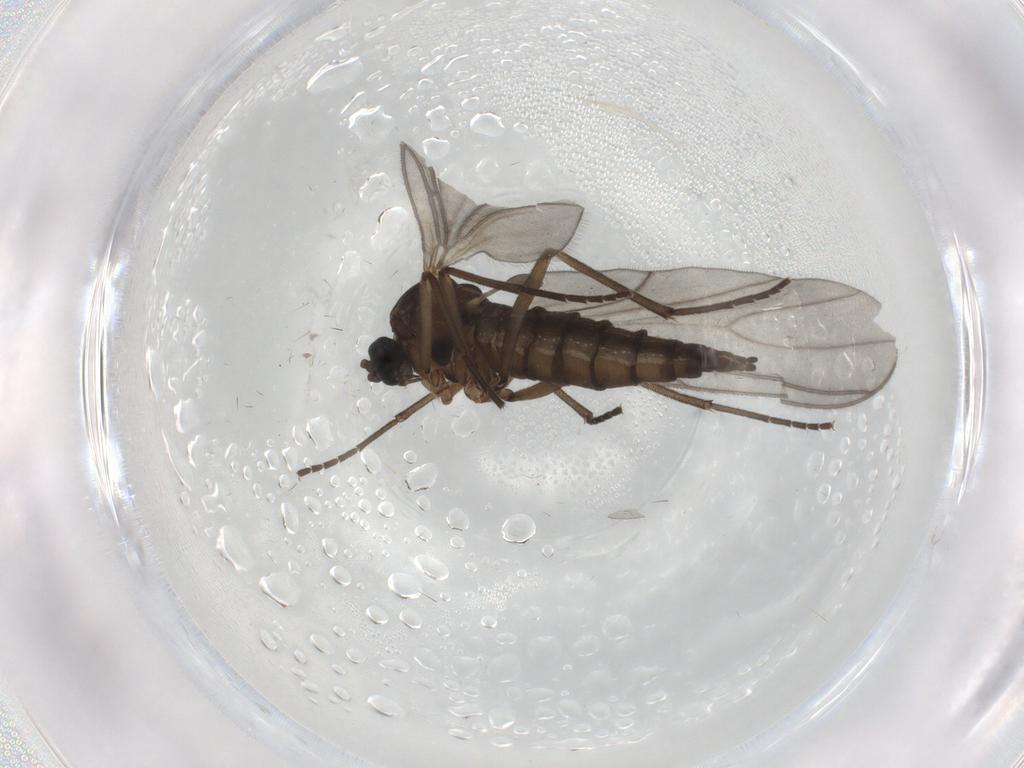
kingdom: Animalia
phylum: Arthropoda
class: Insecta
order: Diptera
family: Sciaridae
